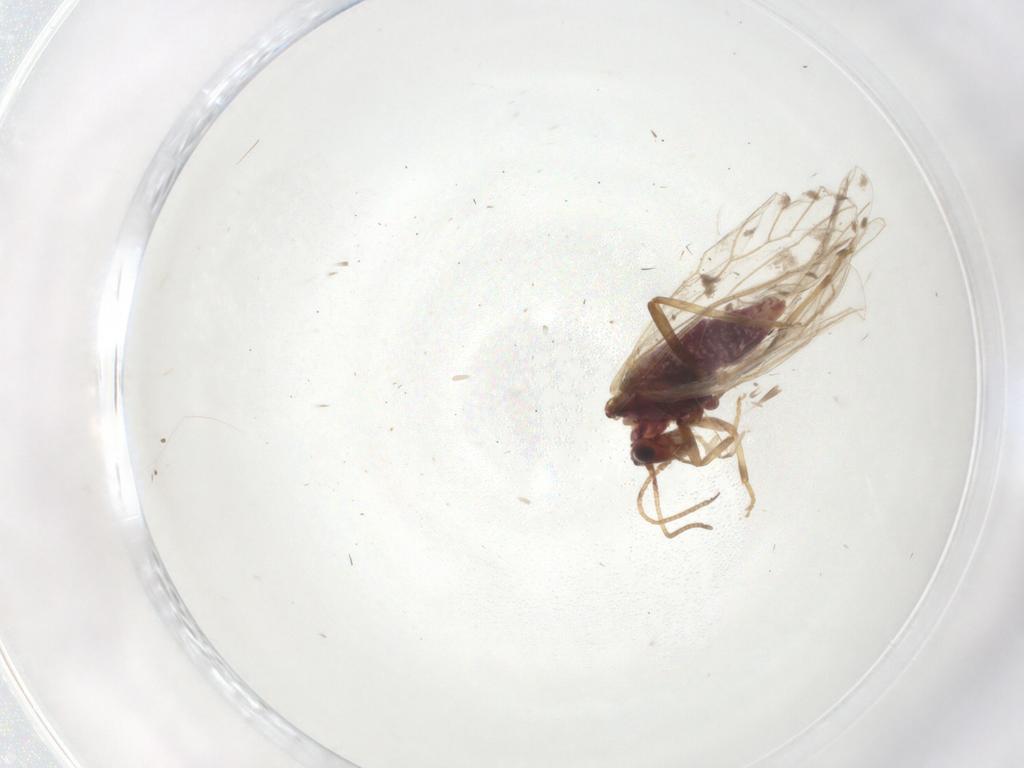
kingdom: Animalia
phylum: Arthropoda
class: Insecta
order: Neuroptera
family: Coniopterygidae
